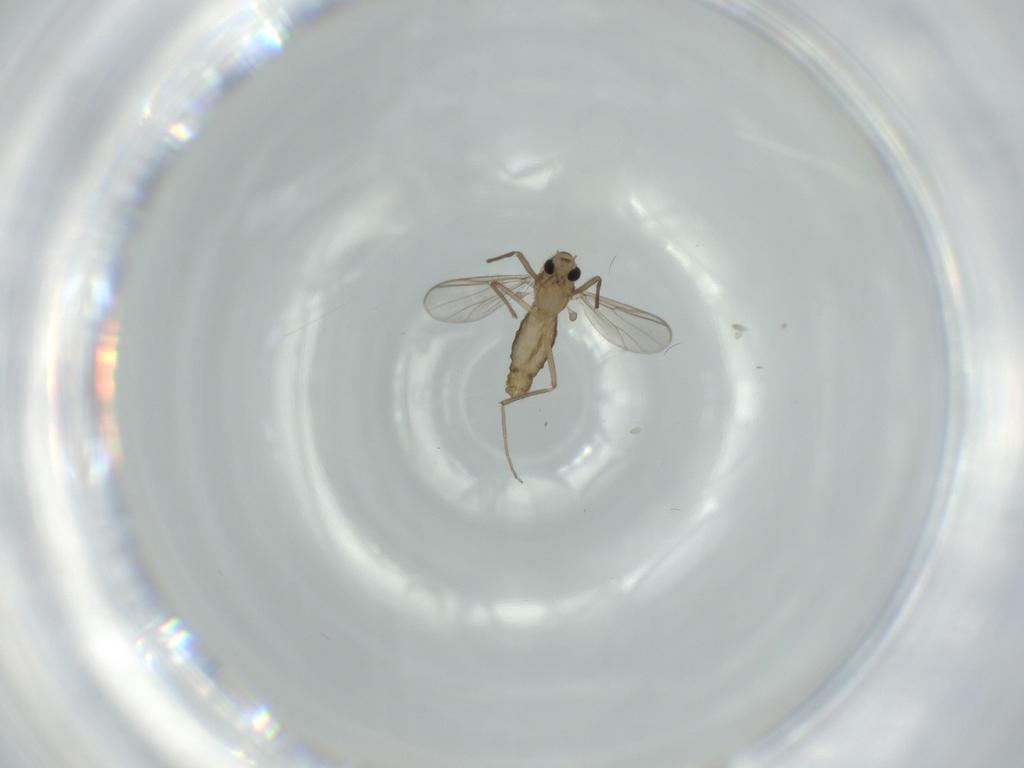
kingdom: Animalia
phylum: Arthropoda
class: Insecta
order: Diptera
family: Chironomidae
